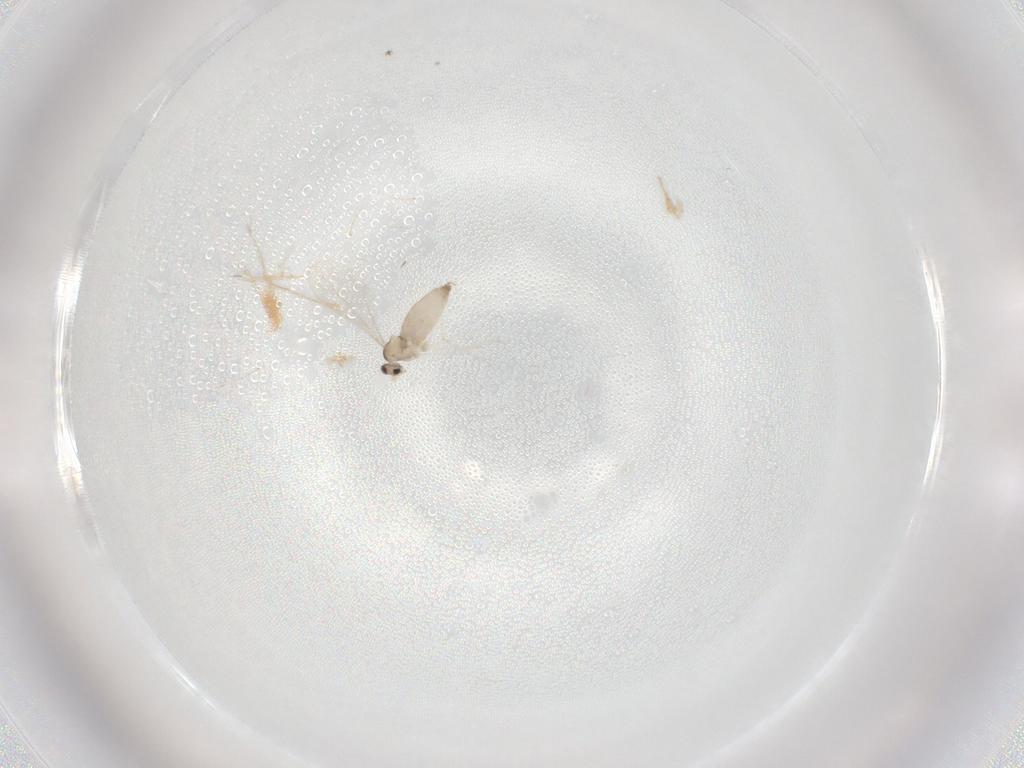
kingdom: Animalia
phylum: Arthropoda
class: Insecta
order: Diptera
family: Cecidomyiidae
